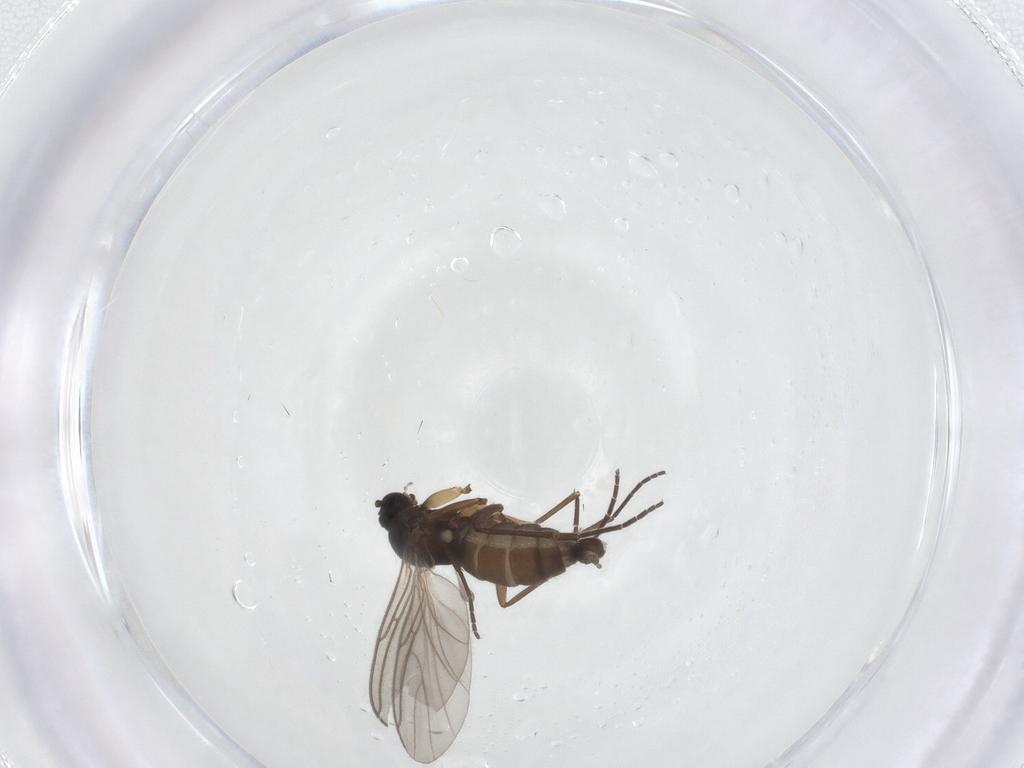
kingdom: Animalia
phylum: Arthropoda
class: Insecta
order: Diptera
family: Sciaridae
